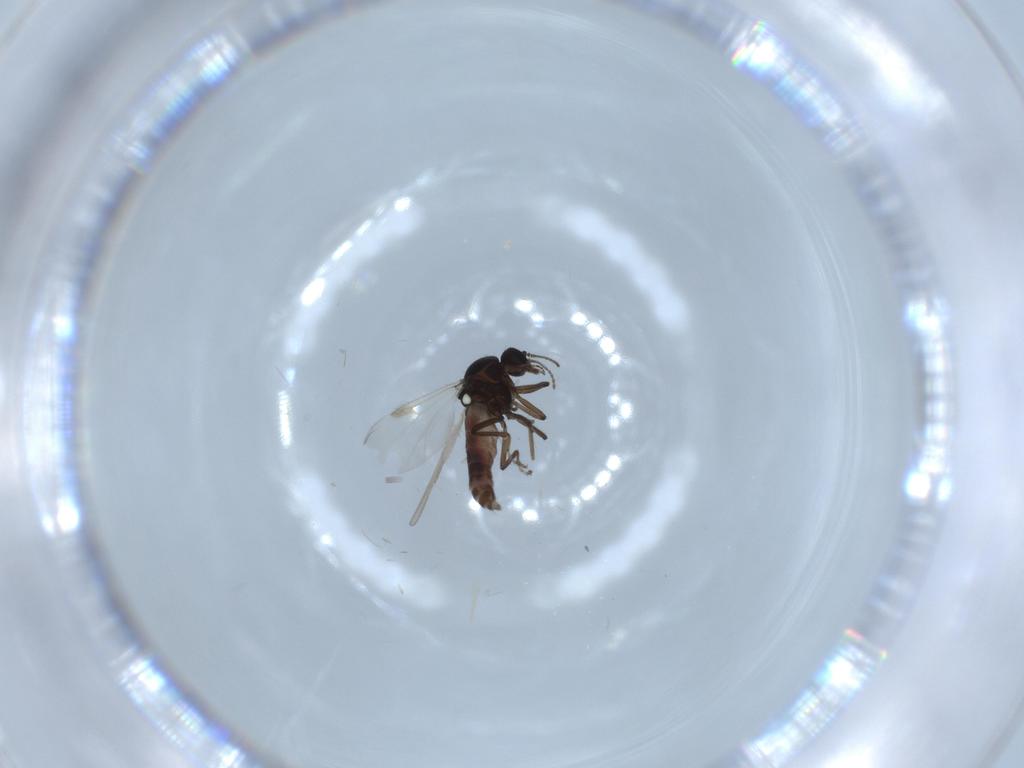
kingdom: Animalia
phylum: Arthropoda
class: Insecta
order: Diptera
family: Ceratopogonidae
